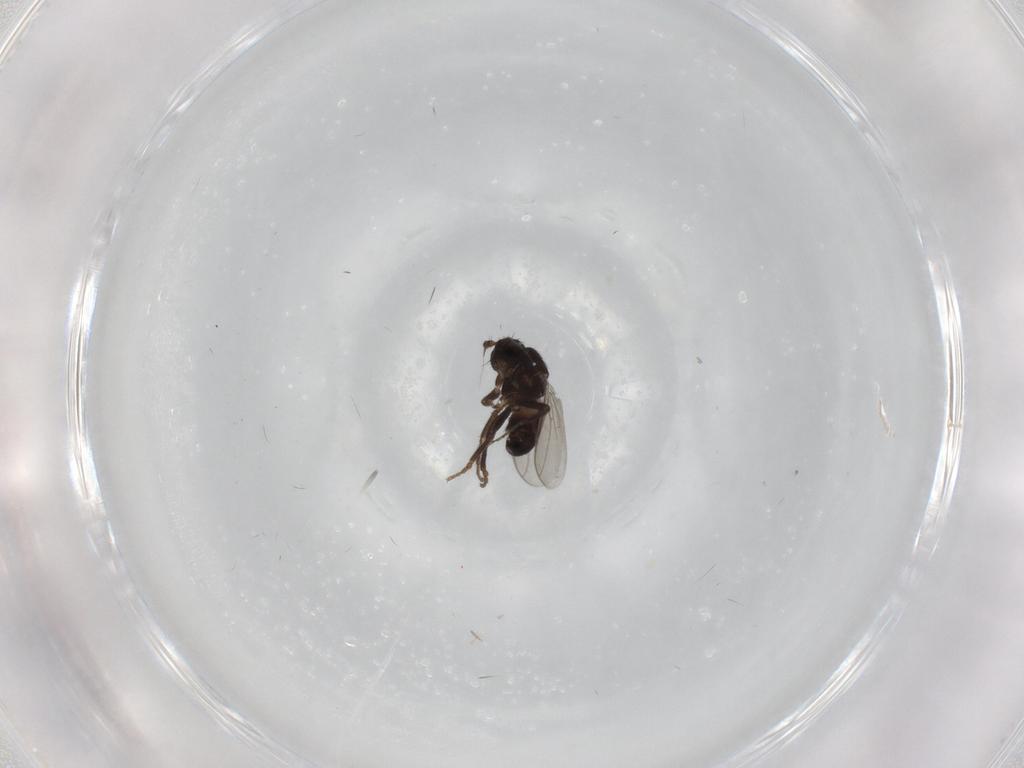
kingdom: Animalia
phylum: Arthropoda
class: Insecta
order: Diptera
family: Sphaeroceridae
